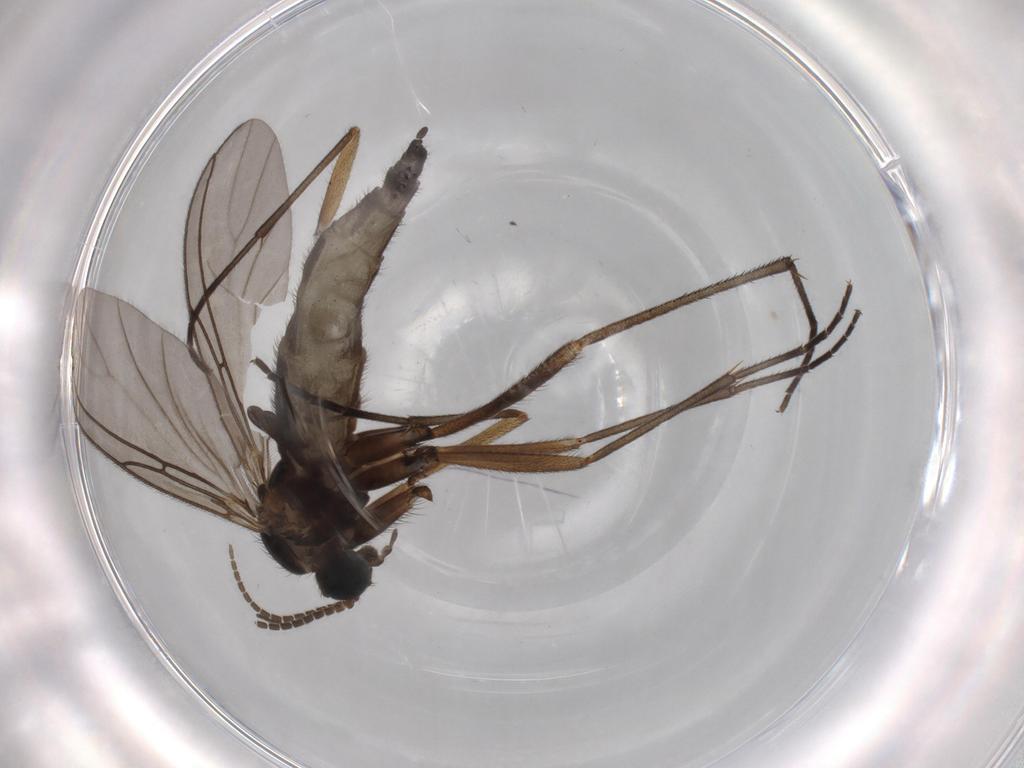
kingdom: Animalia
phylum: Arthropoda
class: Insecta
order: Diptera
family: Sciaridae
